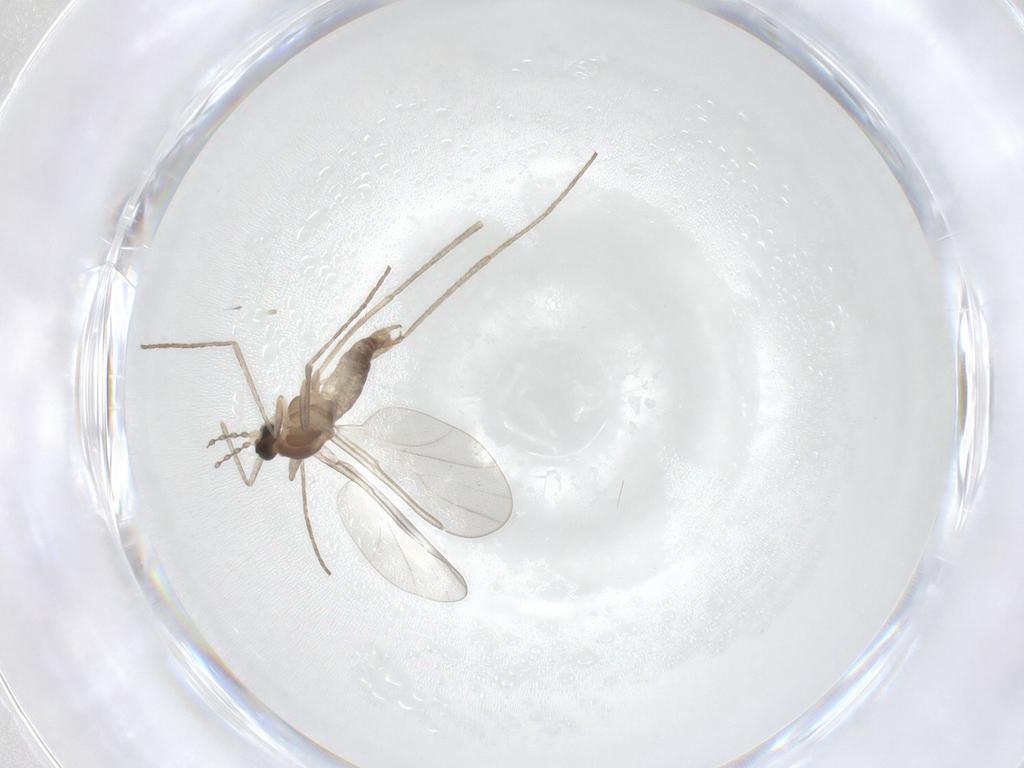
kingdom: Animalia
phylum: Arthropoda
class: Insecta
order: Diptera
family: Cecidomyiidae
